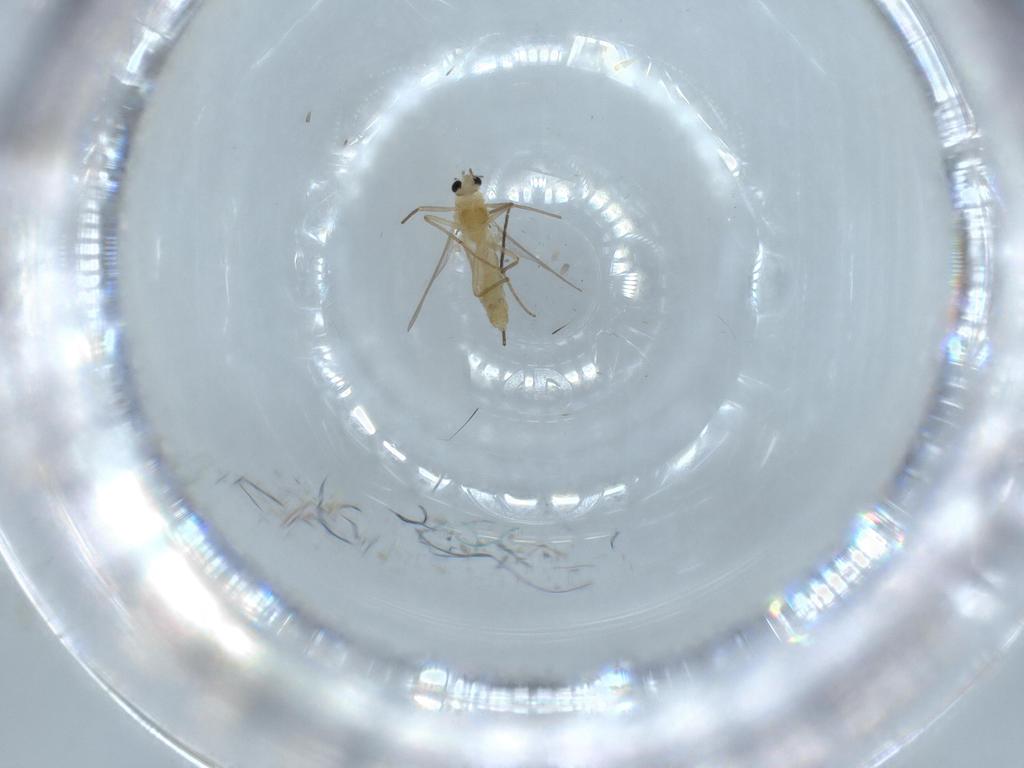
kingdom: Animalia
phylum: Arthropoda
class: Insecta
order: Diptera
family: Chironomidae
